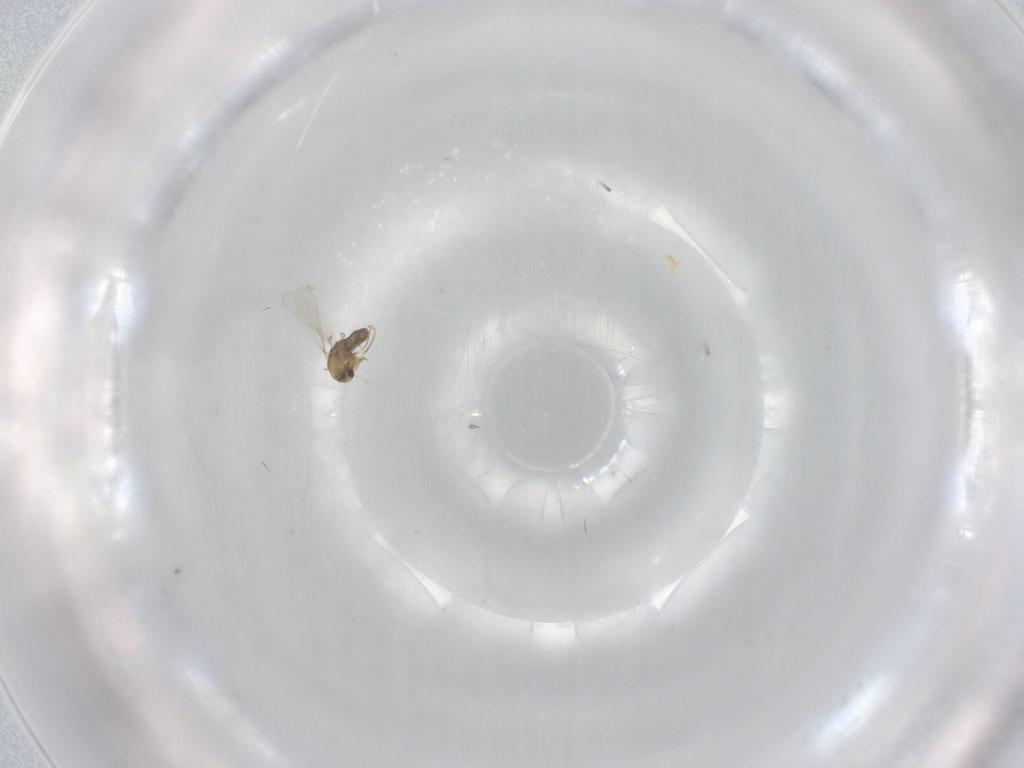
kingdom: Animalia
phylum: Arthropoda
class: Insecta
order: Diptera
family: Chironomidae
